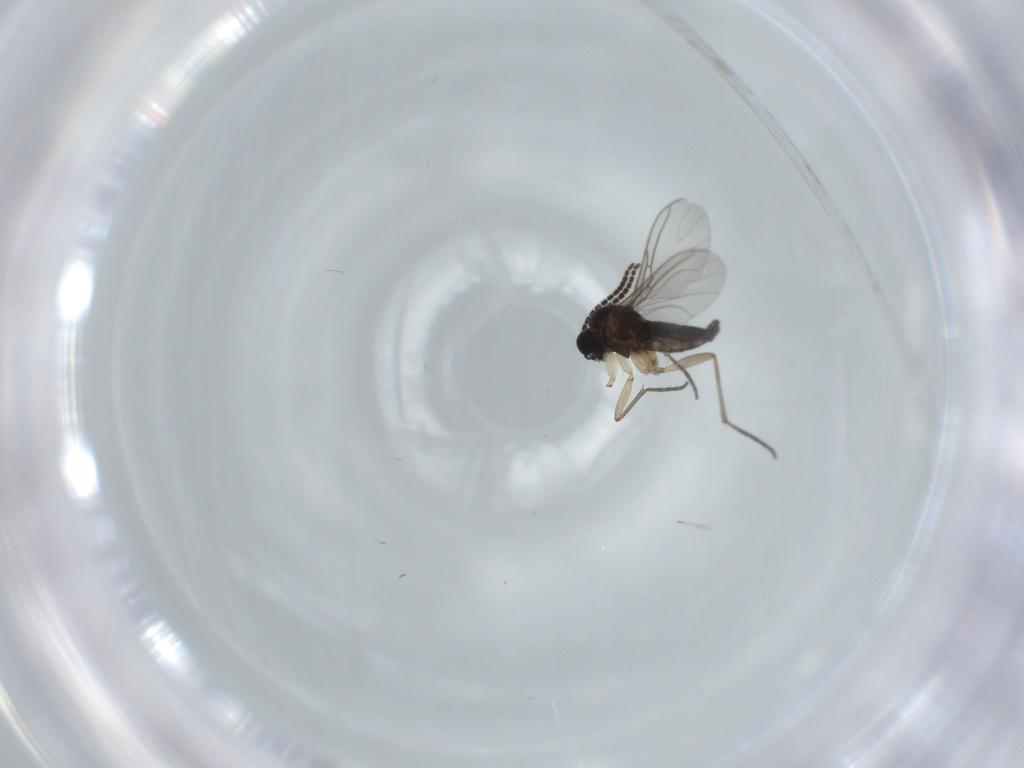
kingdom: Animalia
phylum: Arthropoda
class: Insecta
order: Diptera
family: Sciaridae
